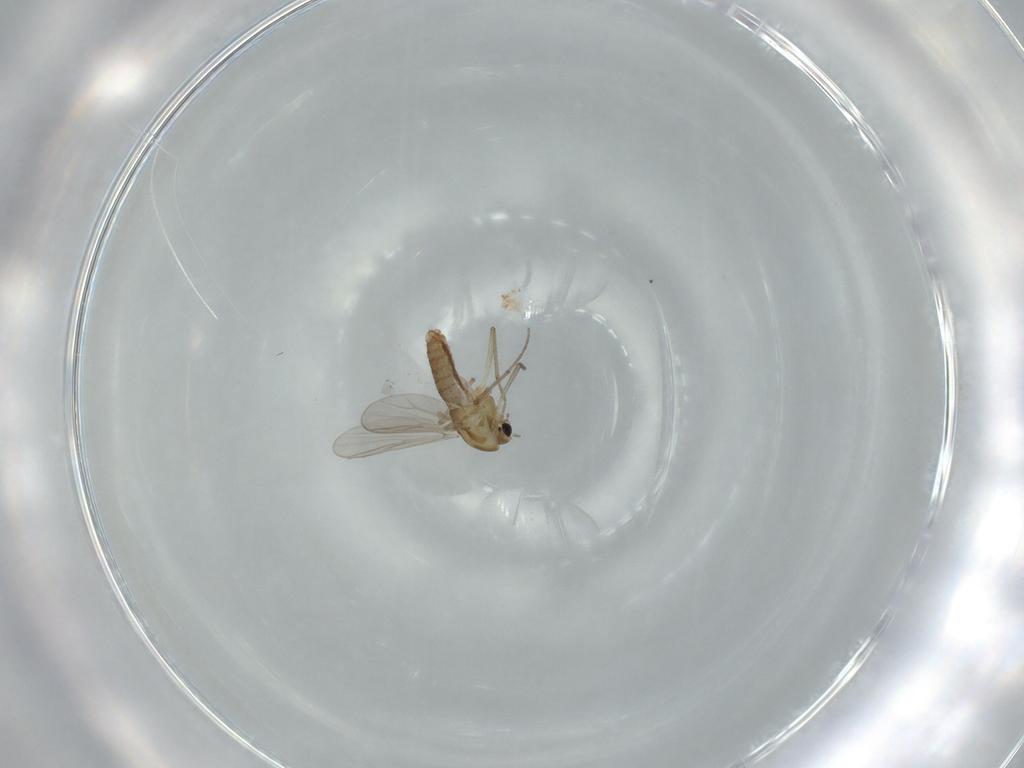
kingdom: Animalia
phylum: Arthropoda
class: Insecta
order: Diptera
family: Chironomidae
